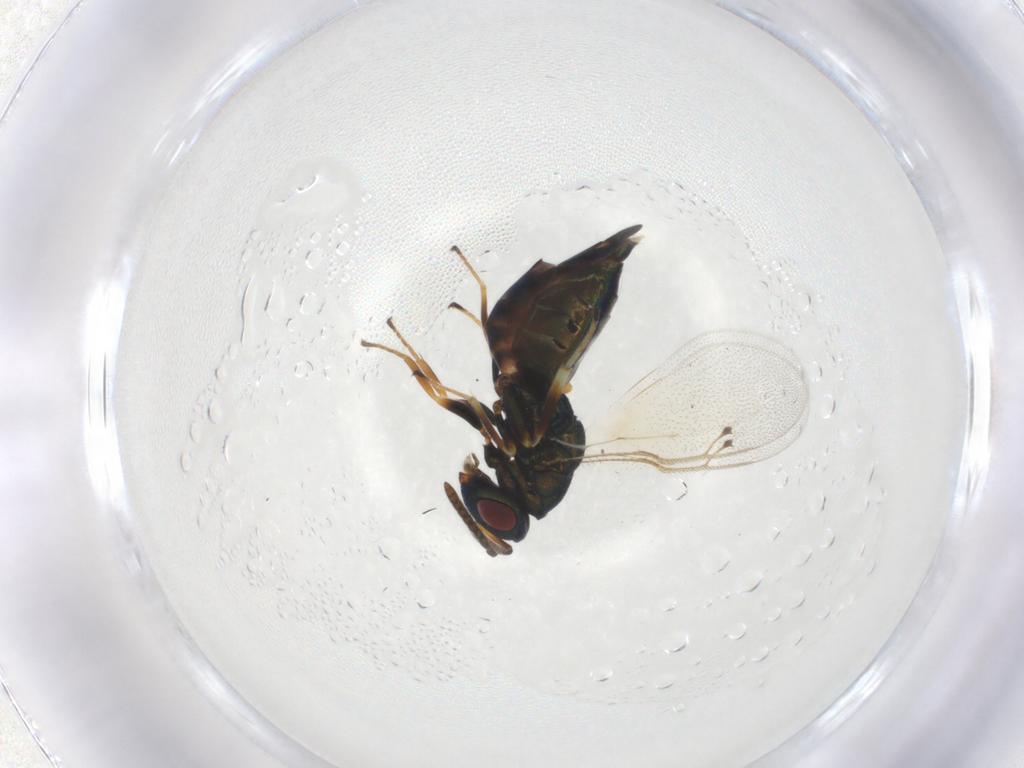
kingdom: Animalia
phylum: Arthropoda
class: Insecta
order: Hymenoptera
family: Pteromalidae
